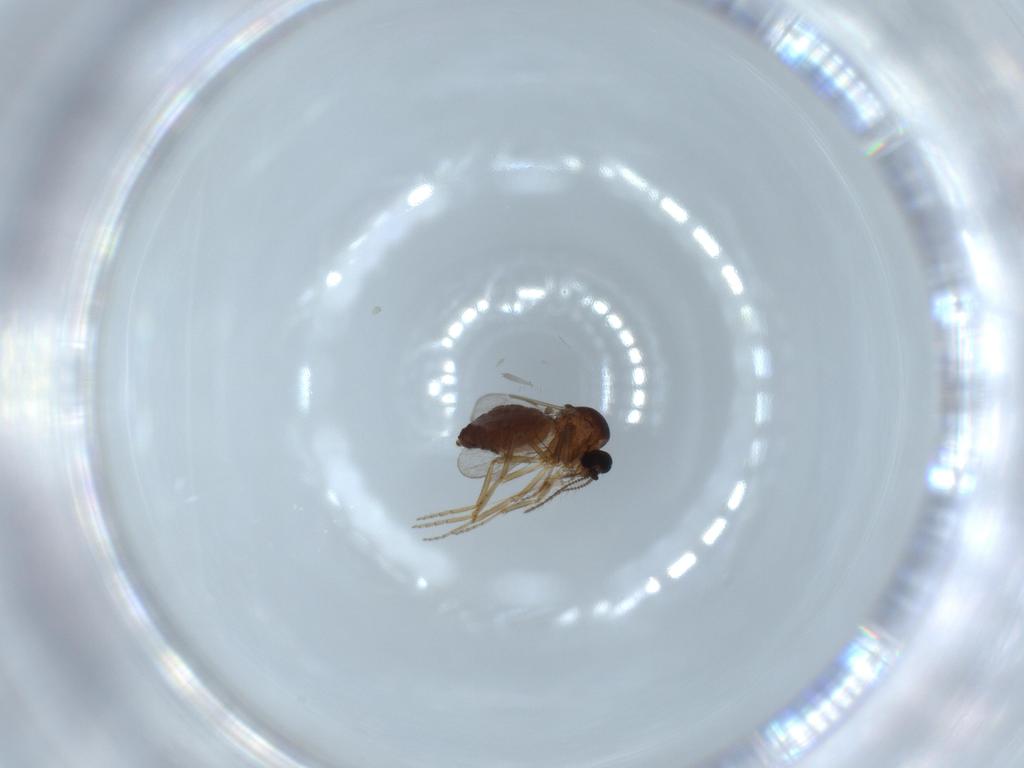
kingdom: Animalia
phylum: Arthropoda
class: Insecta
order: Diptera
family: Ceratopogonidae
